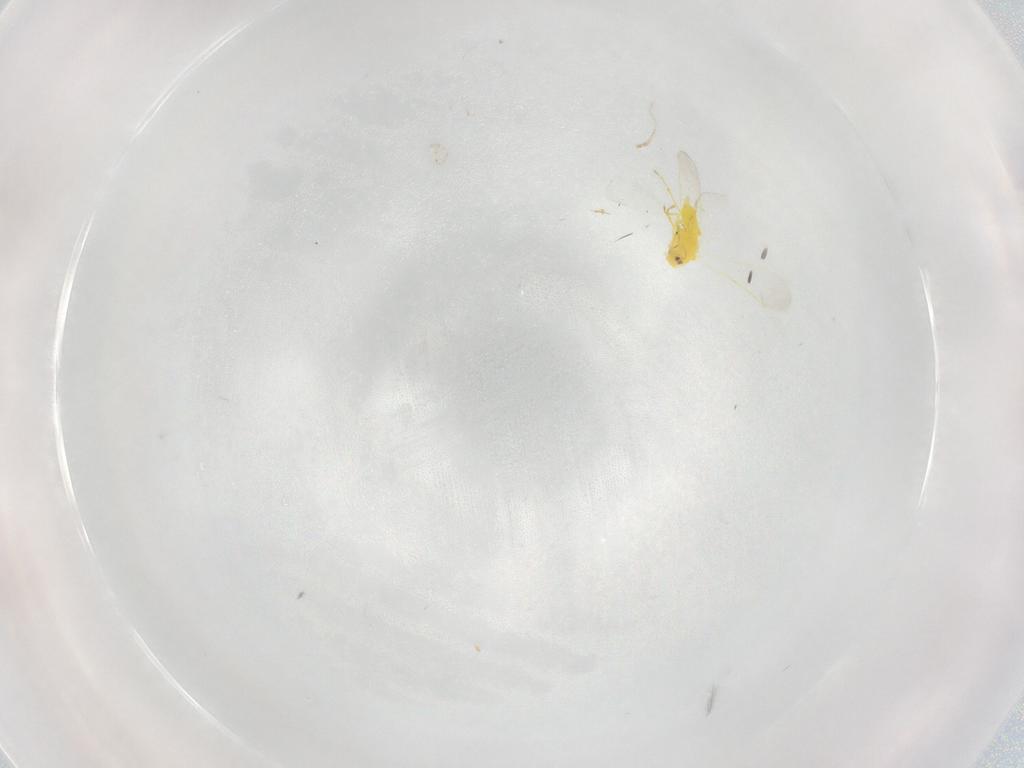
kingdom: Animalia
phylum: Arthropoda
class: Insecta
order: Hemiptera
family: Aleyrodidae
